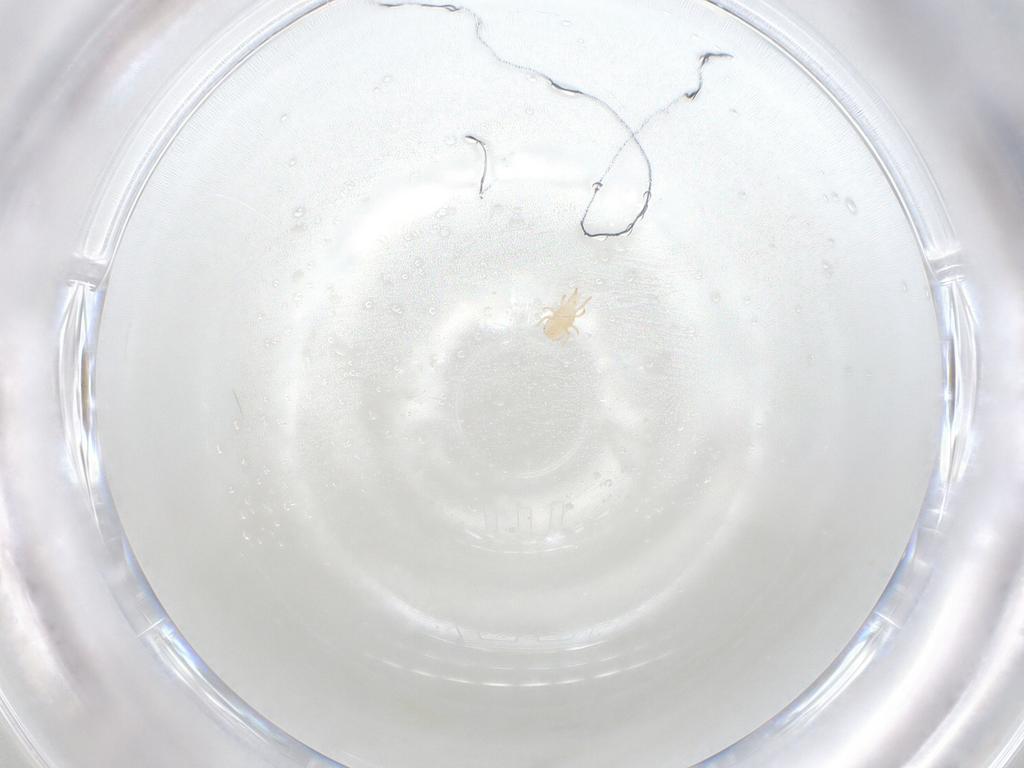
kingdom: Animalia
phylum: Arthropoda
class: Arachnida
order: Mesostigmata
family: Phytoseiidae
